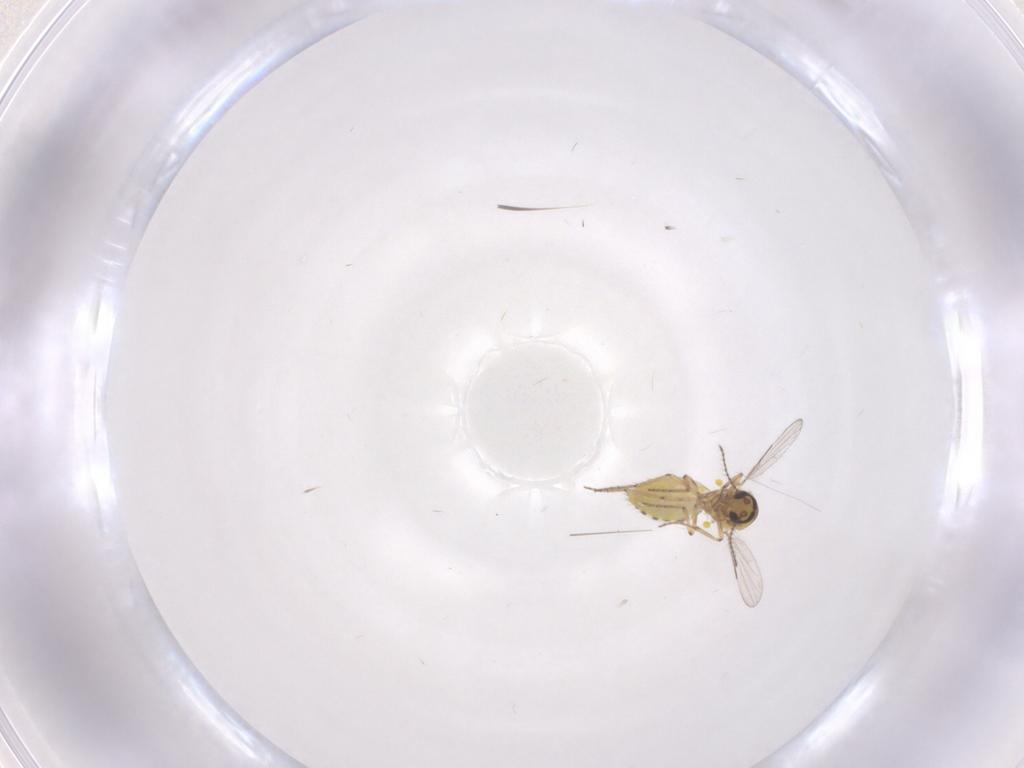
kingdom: Animalia
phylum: Arthropoda
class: Insecta
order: Diptera
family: Ceratopogonidae
